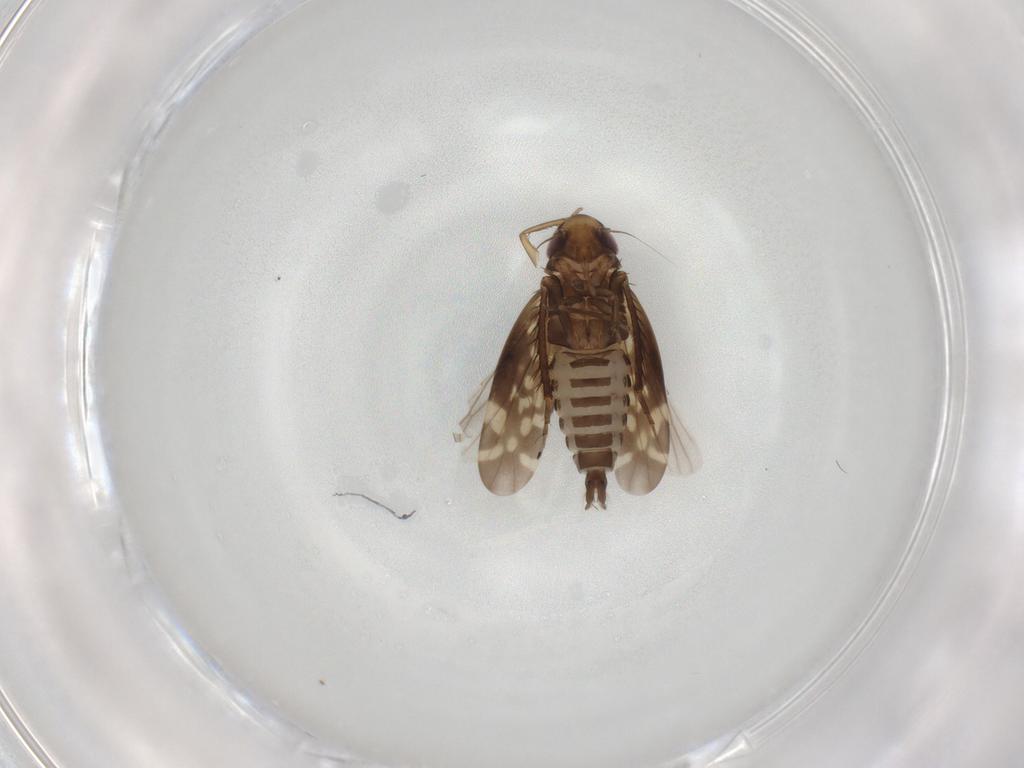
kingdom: Animalia
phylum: Arthropoda
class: Insecta
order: Hemiptera
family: Cicadellidae
